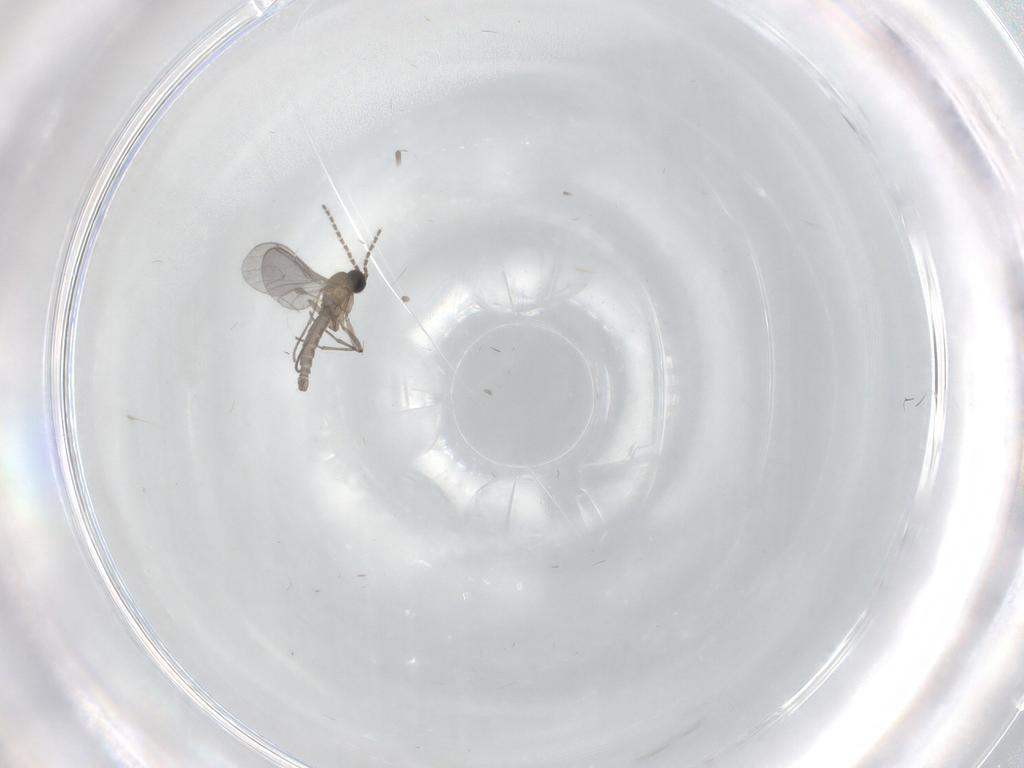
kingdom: Animalia
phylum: Arthropoda
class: Insecta
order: Diptera
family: Sciaridae
